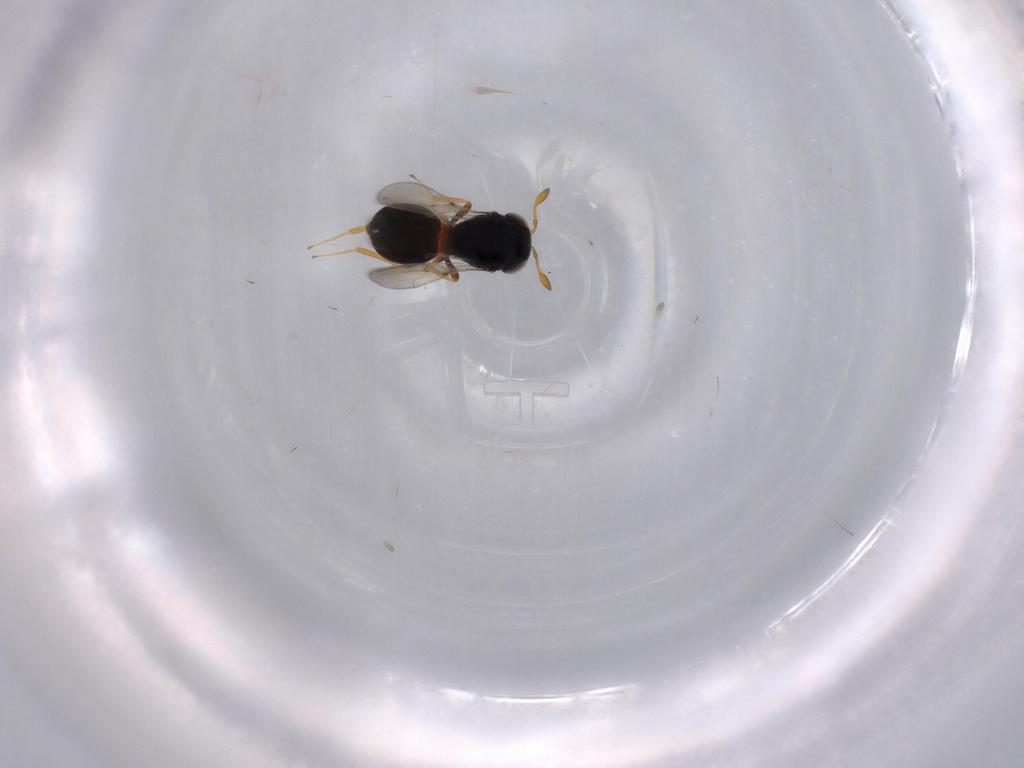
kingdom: Animalia
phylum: Arthropoda
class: Insecta
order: Hymenoptera
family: Scelionidae
